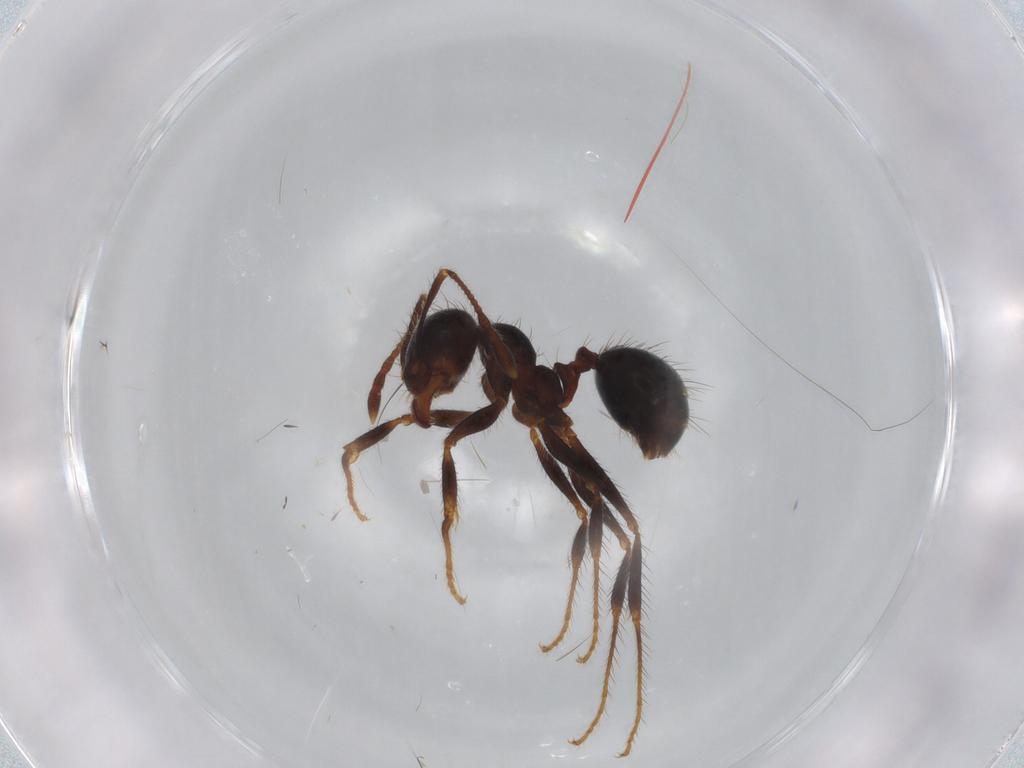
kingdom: Animalia
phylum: Arthropoda
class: Insecta
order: Hymenoptera
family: Formicidae
